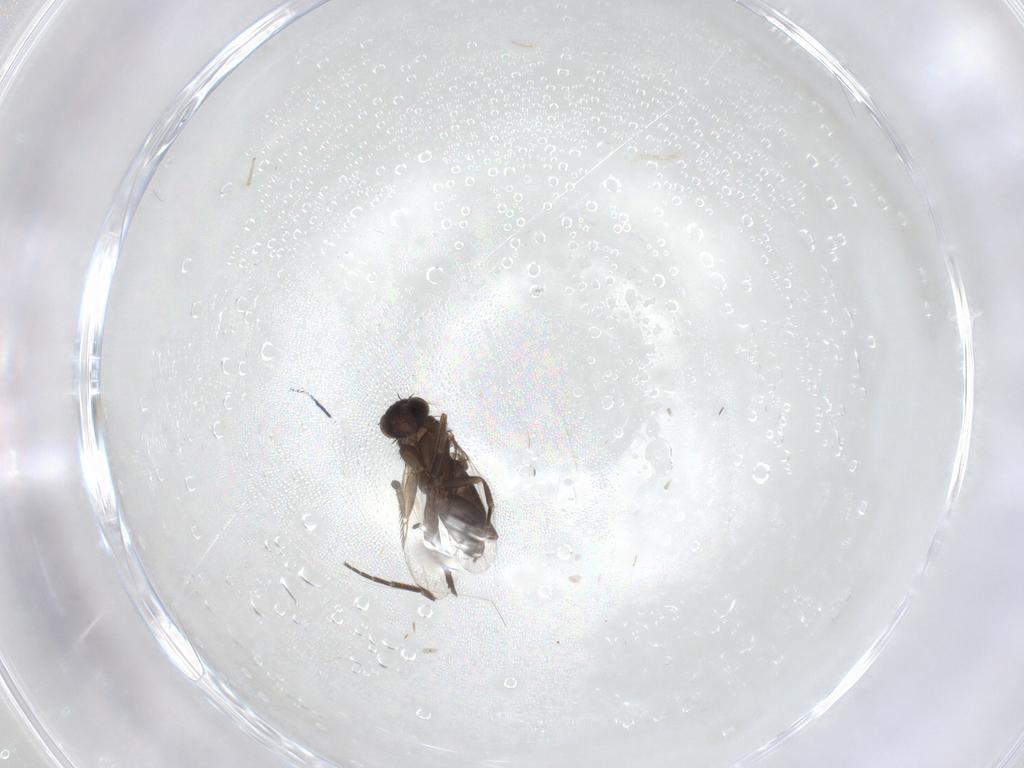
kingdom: Animalia
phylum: Arthropoda
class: Insecta
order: Diptera
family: Phoridae
